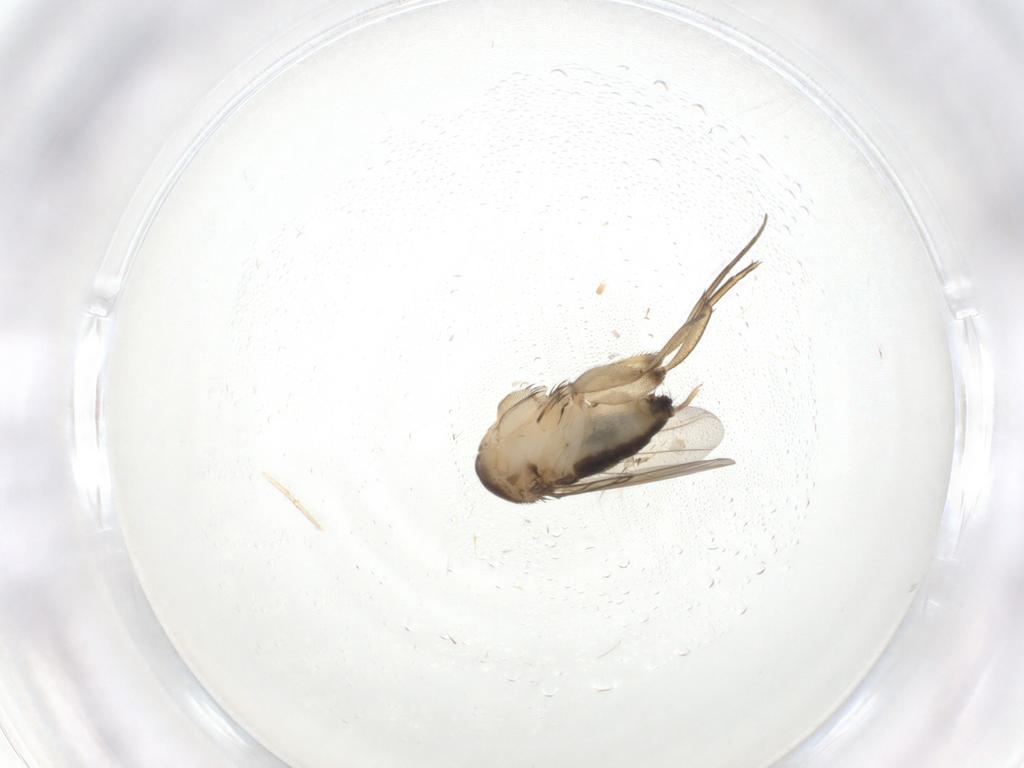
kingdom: Animalia
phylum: Arthropoda
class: Insecta
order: Diptera
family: Phoridae
